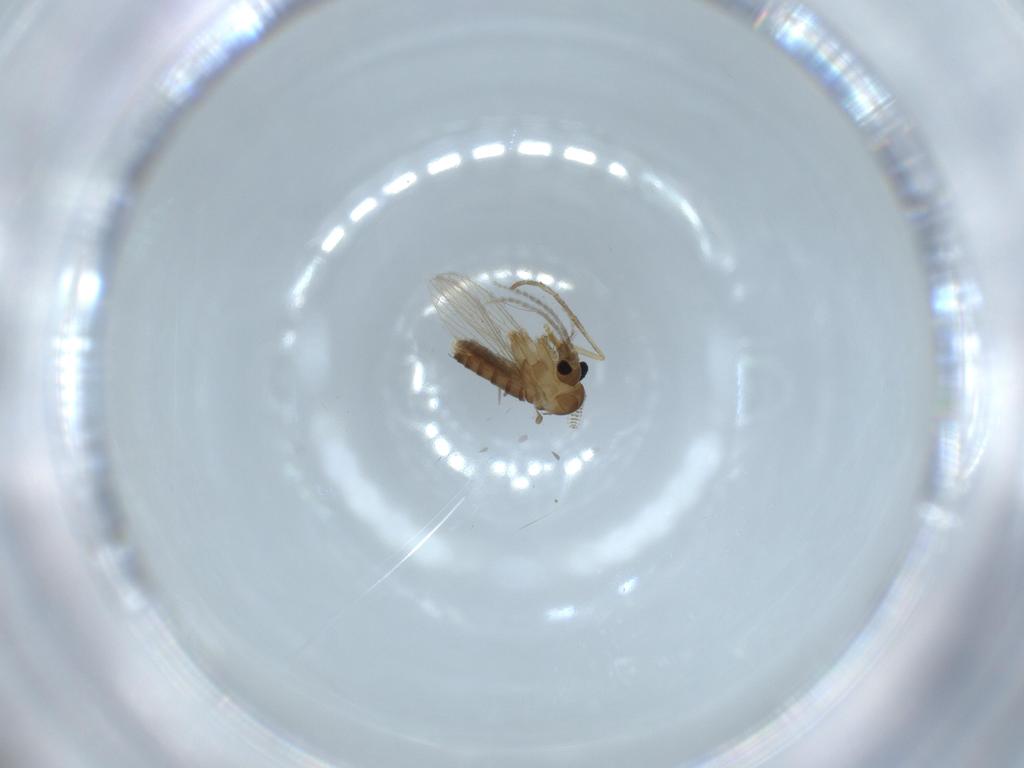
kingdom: Animalia
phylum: Arthropoda
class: Insecta
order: Diptera
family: Psychodidae
